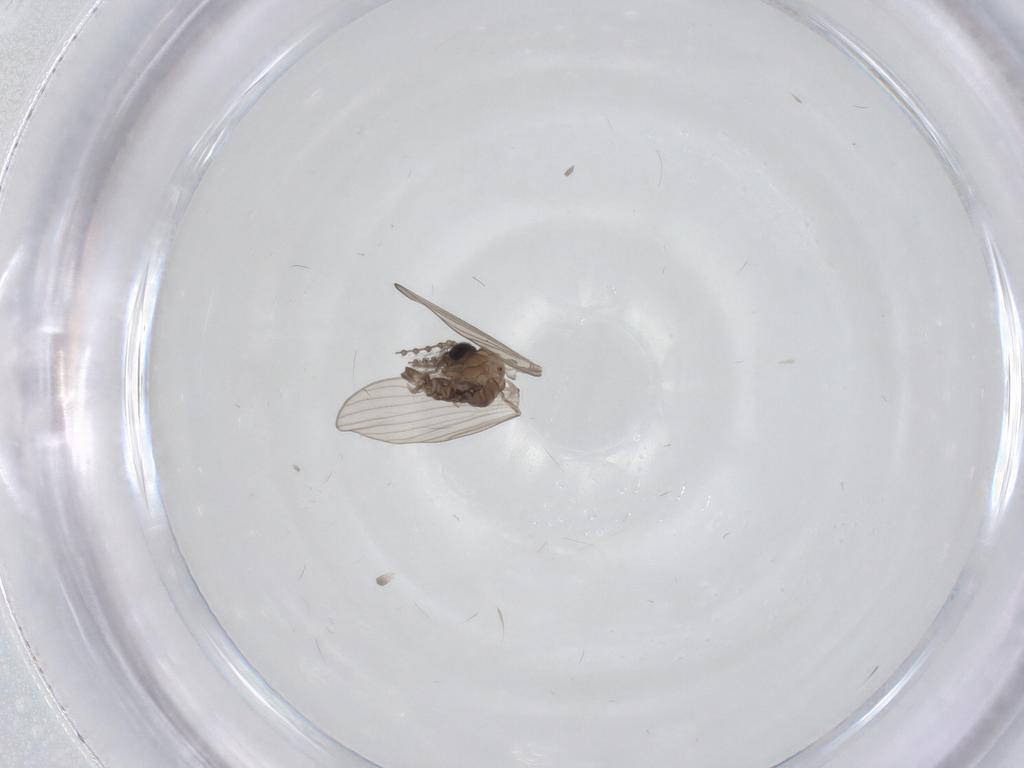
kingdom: Animalia
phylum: Arthropoda
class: Insecta
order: Diptera
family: Psychodidae
